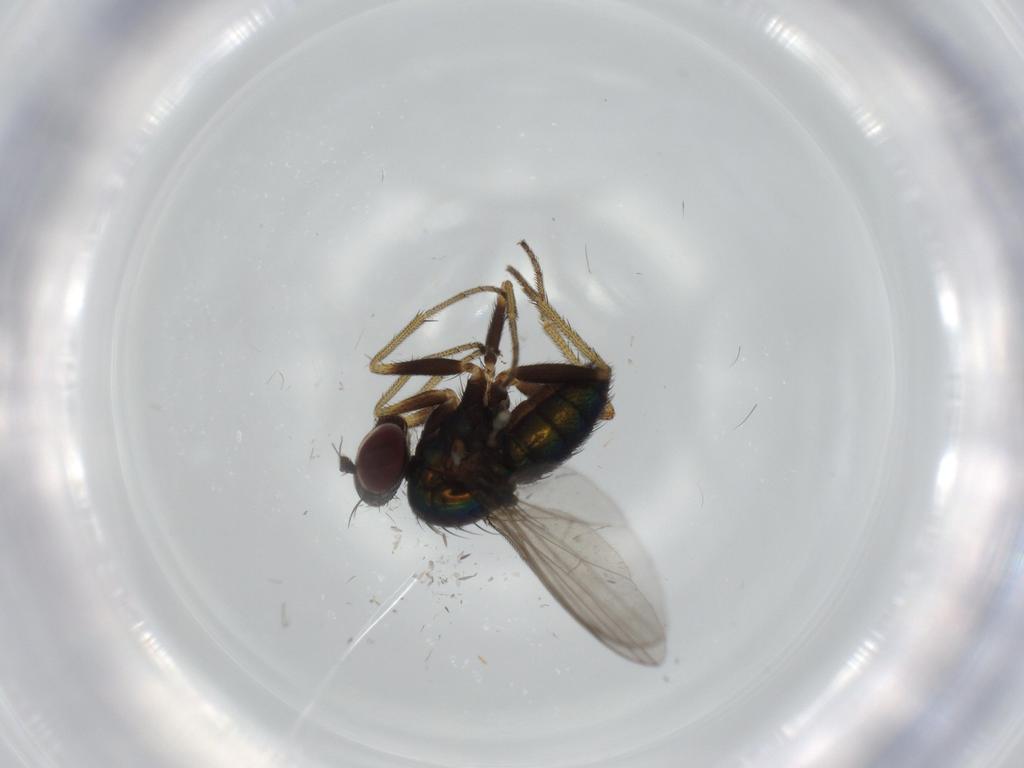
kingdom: Animalia
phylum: Arthropoda
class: Insecta
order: Diptera
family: Dolichopodidae
